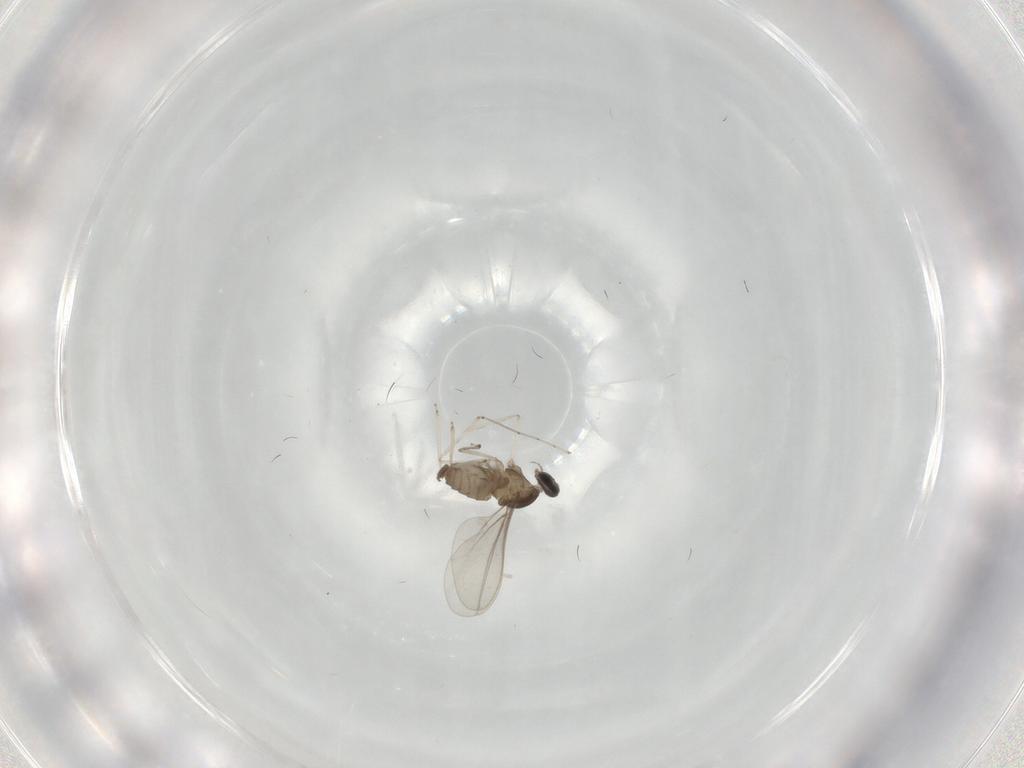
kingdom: Animalia
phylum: Arthropoda
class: Insecta
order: Diptera
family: Cecidomyiidae
